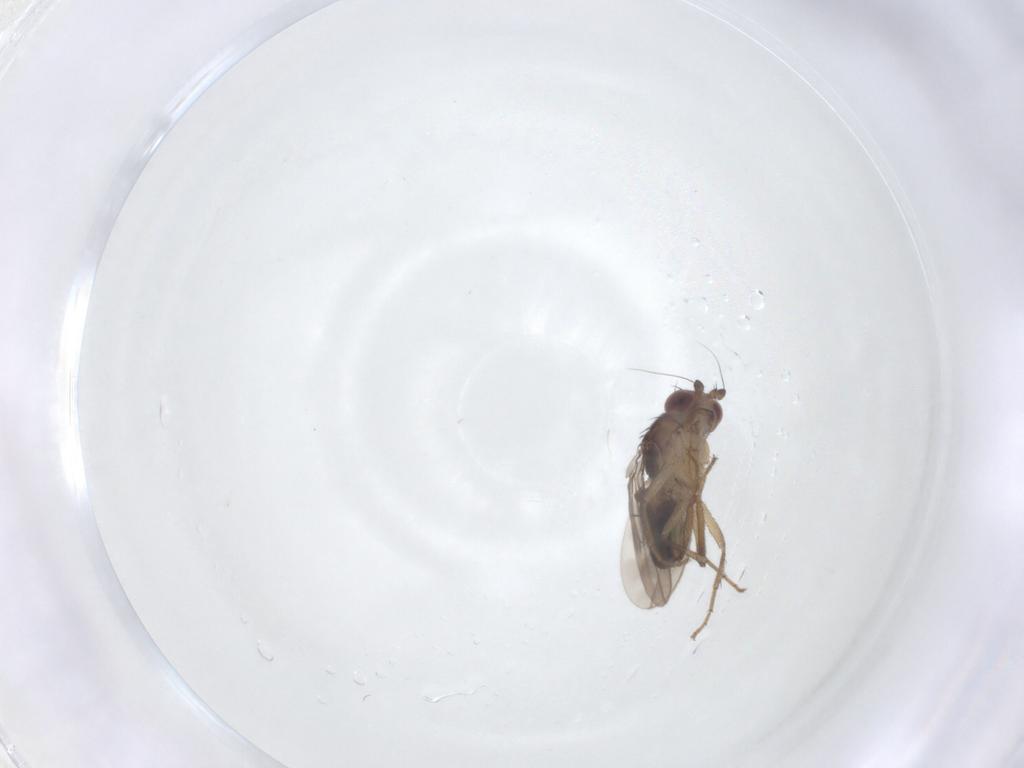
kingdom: Animalia
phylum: Arthropoda
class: Insecta
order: Diptera
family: Sphaeroceridae
